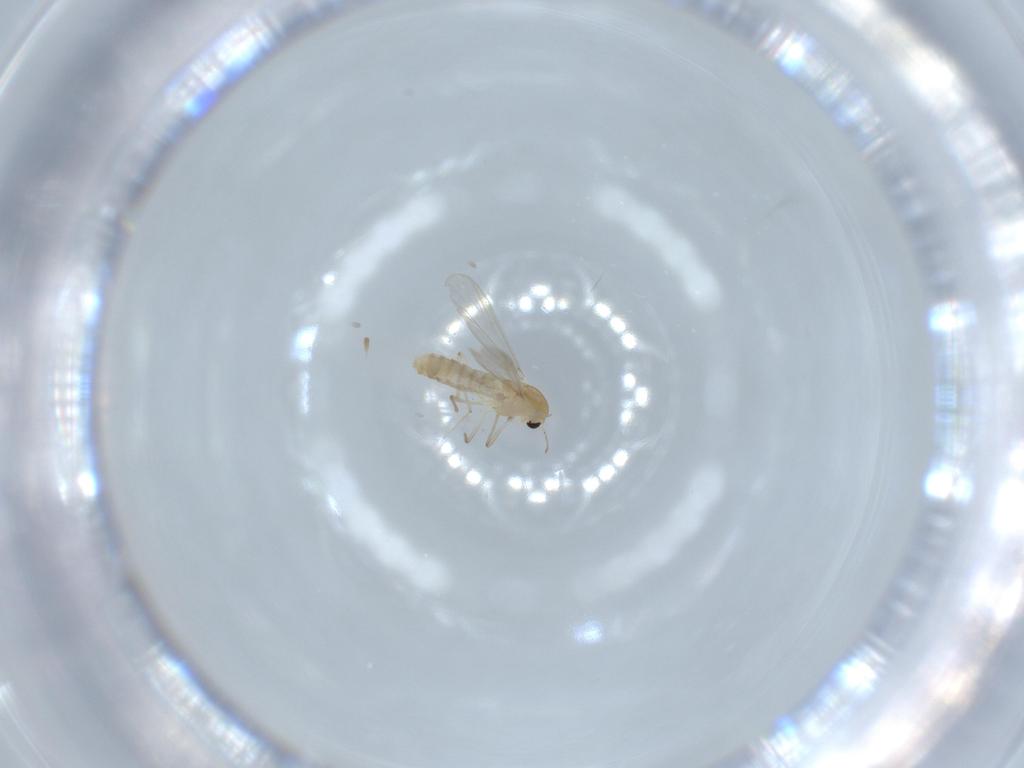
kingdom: Animalia
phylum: Arthropoda
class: Insecta
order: Diptera
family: Chironomidae
